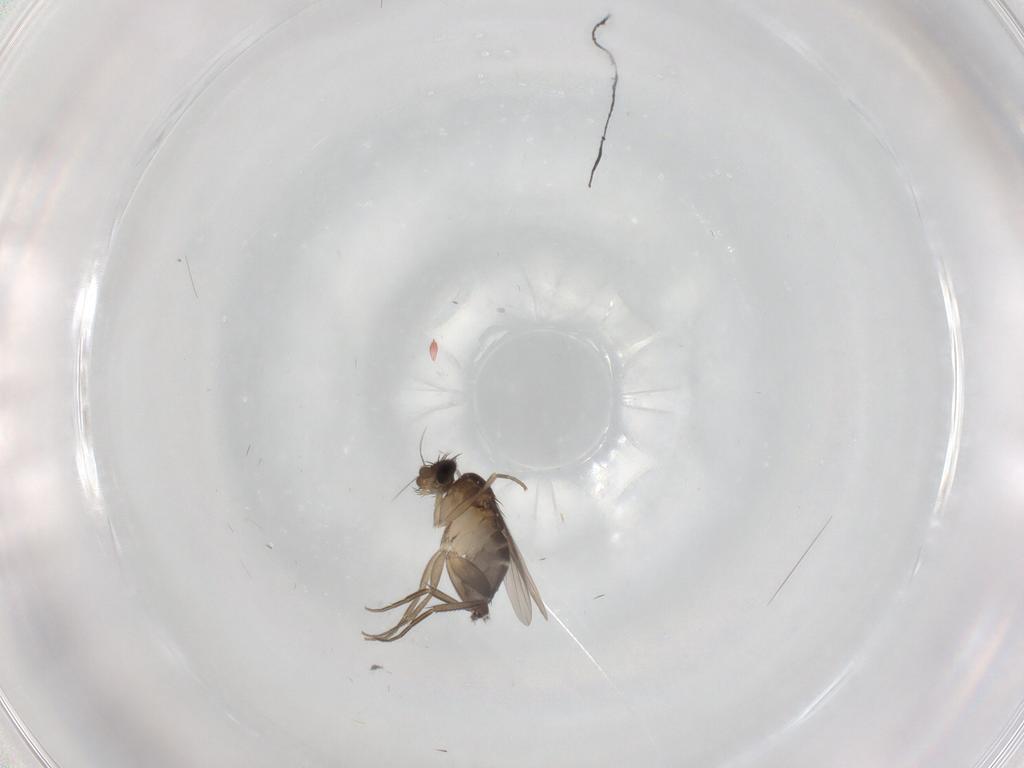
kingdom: Animalia
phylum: Arthropoda
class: Insecta
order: Diptera
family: Phoridae
